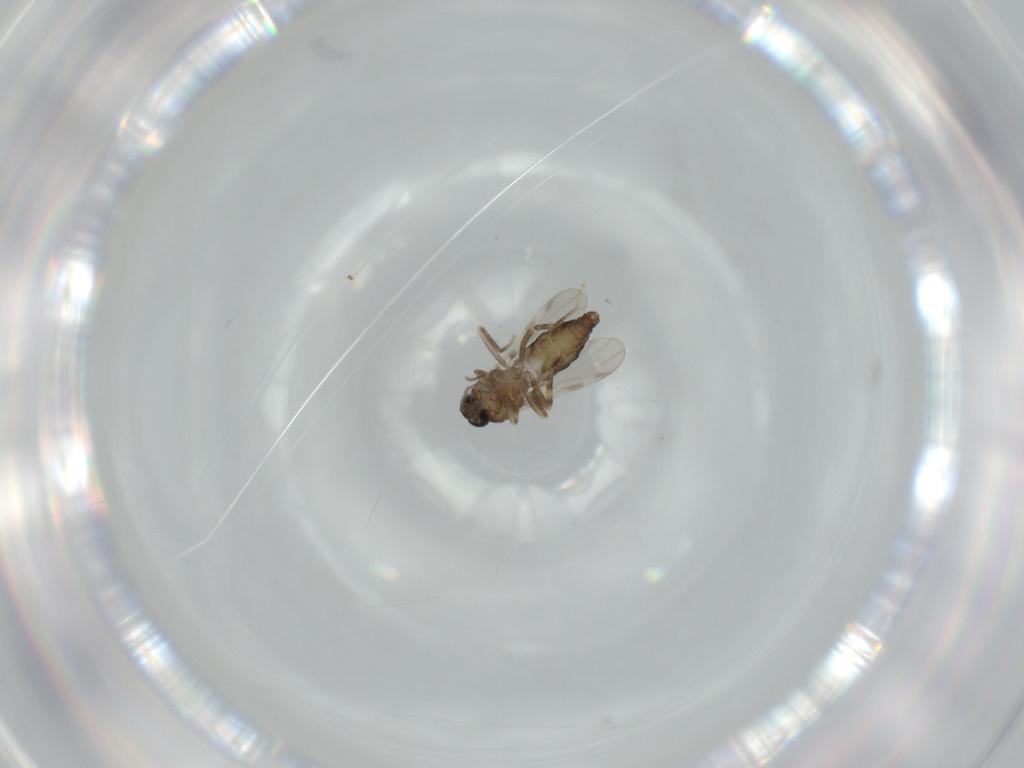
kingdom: Animalia
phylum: Arthropoda
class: Insecta
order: Diptera
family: Ceratopogonidae
